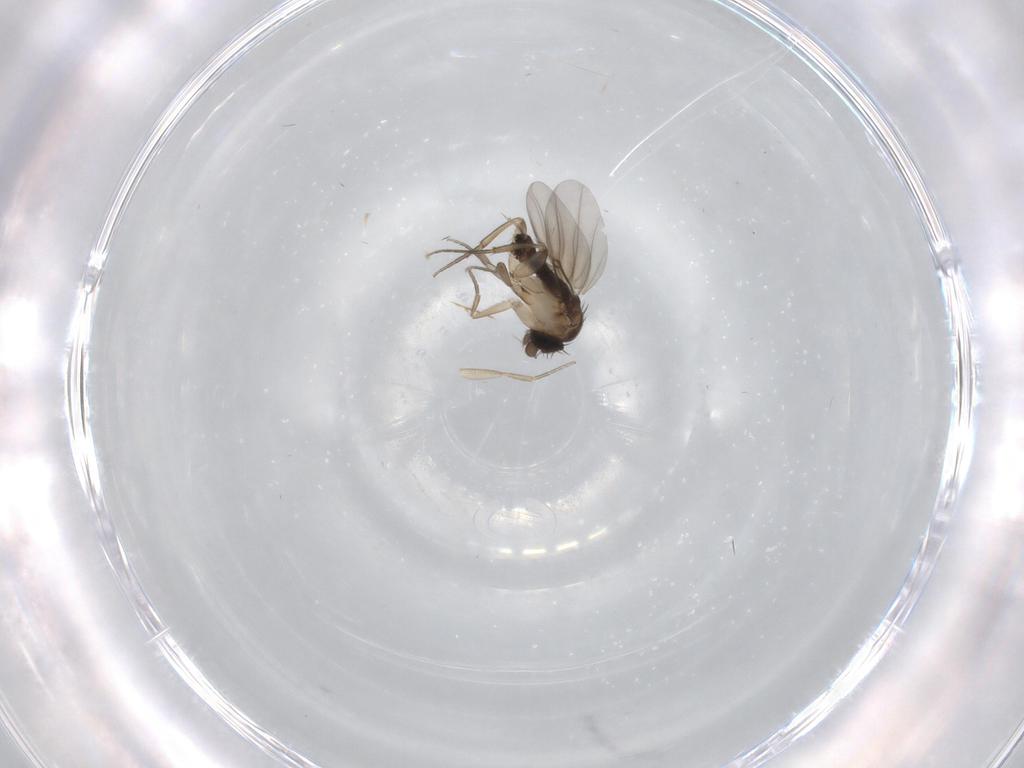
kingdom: Animalia
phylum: Arthropoda
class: Insecta
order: Diptera
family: Phoridae
